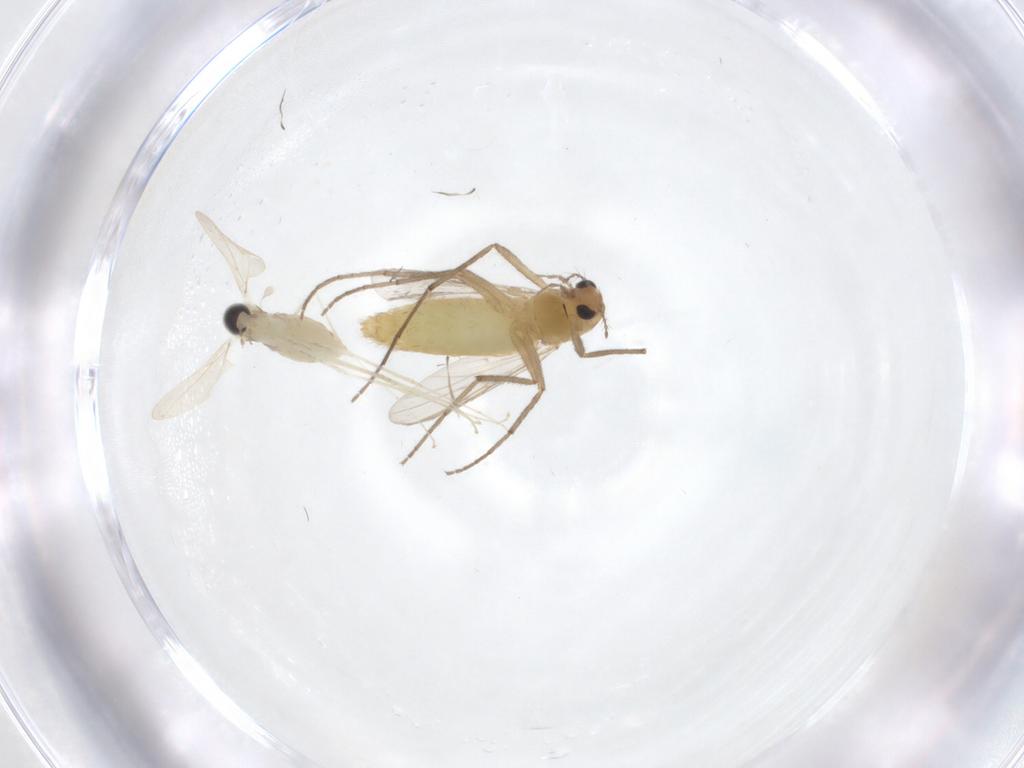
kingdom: Animalia
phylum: Arthropoda
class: Insecta
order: Diptera
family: Cecidomyiidae
